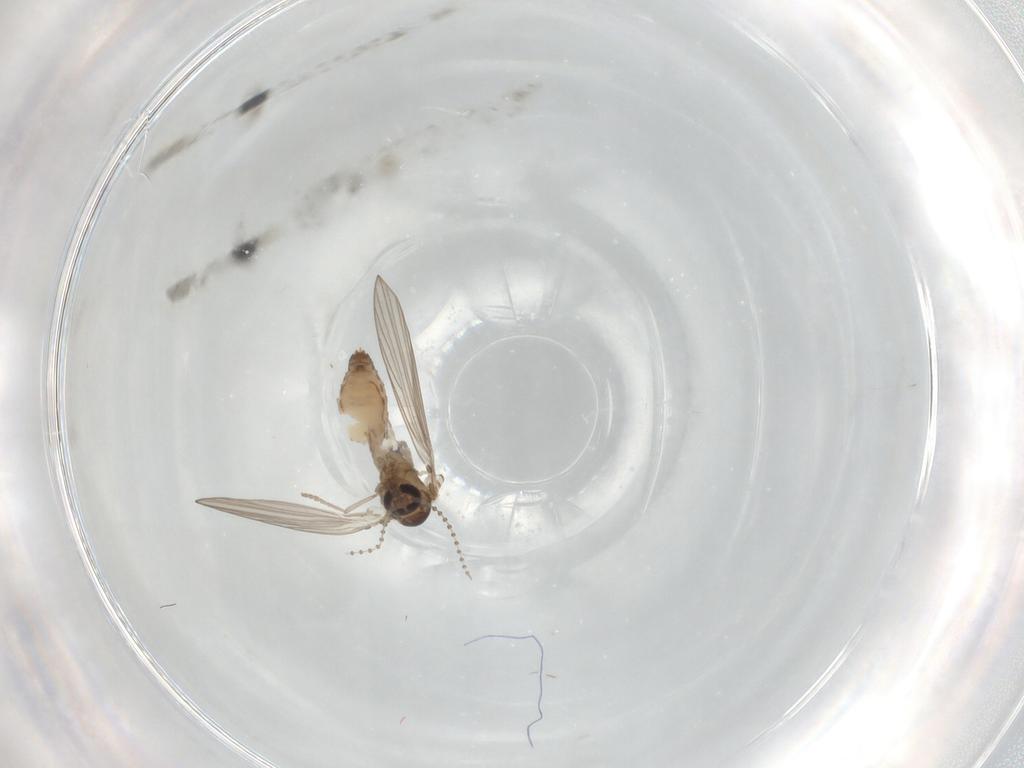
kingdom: Animalia
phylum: Arthropoda
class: Insecta
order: Diptera
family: Psychodidae
